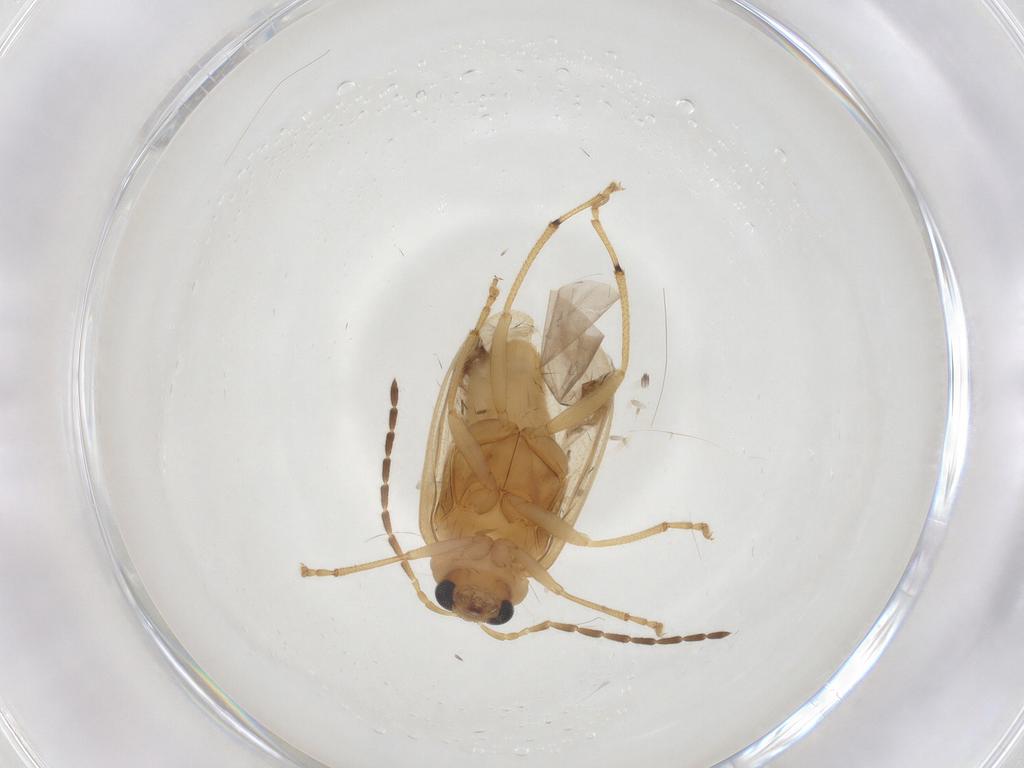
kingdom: Animalia
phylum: Arthropoda
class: Insecta
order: Coleoptera
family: Chrysomelidae
